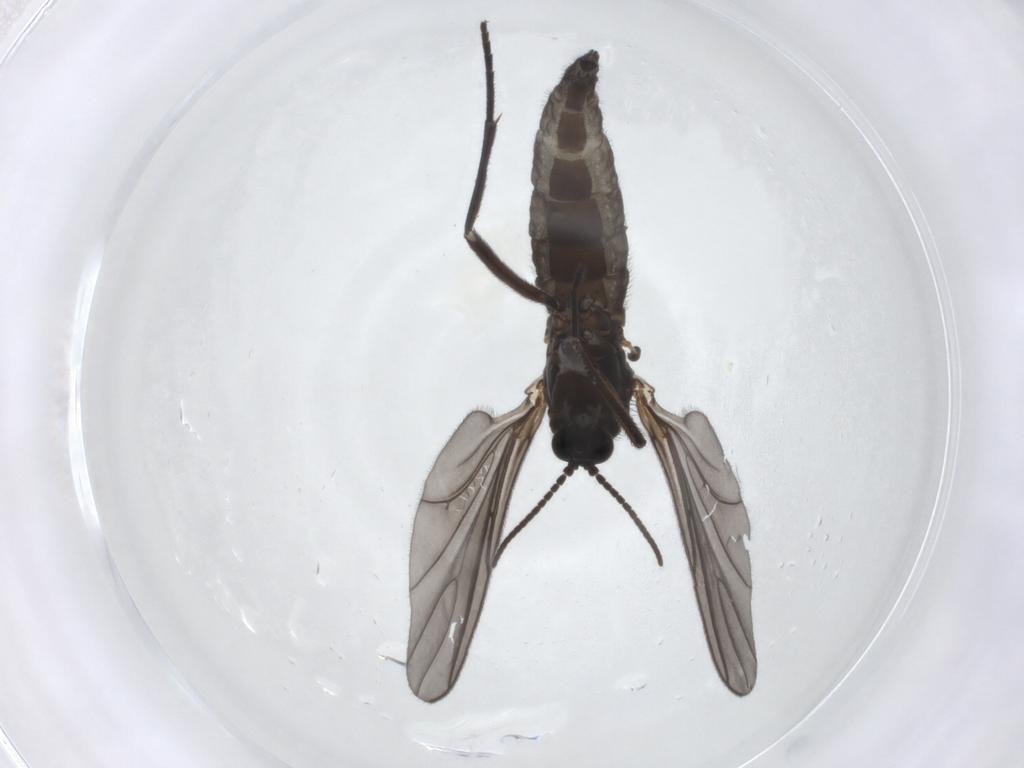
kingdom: Animalia
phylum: Arthropoda
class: Insecta
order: Diptera
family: Sciaridae
